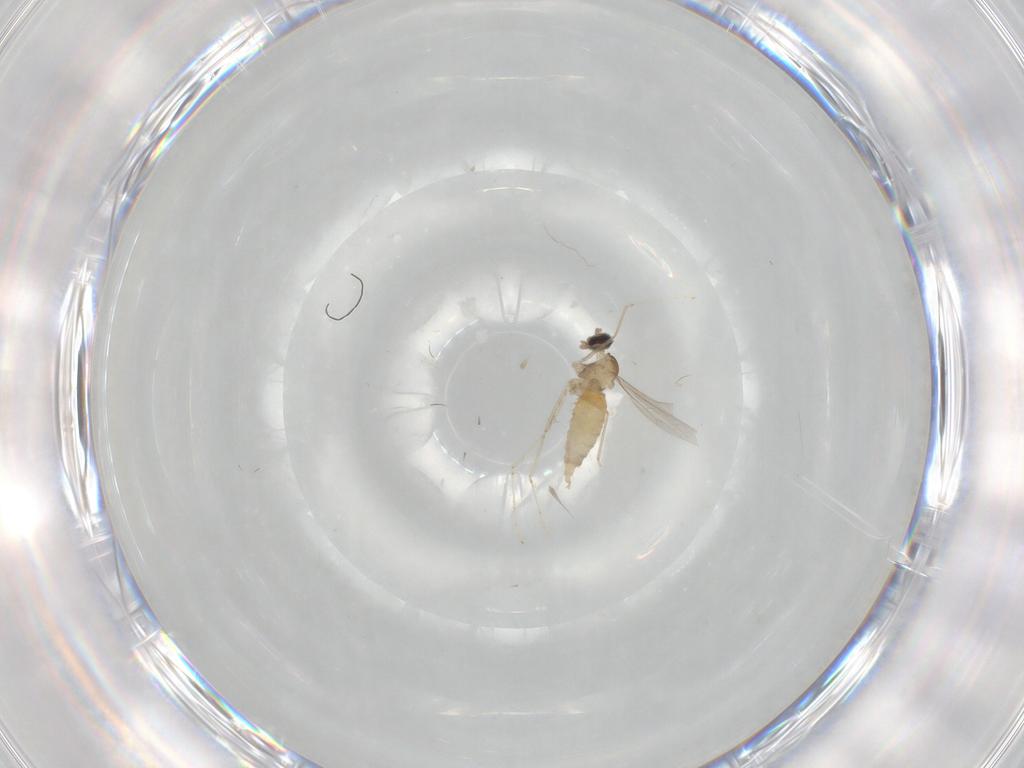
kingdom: Animalia
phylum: Arthropoda
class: Insecta
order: Diptera
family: Cecidomyiidae
